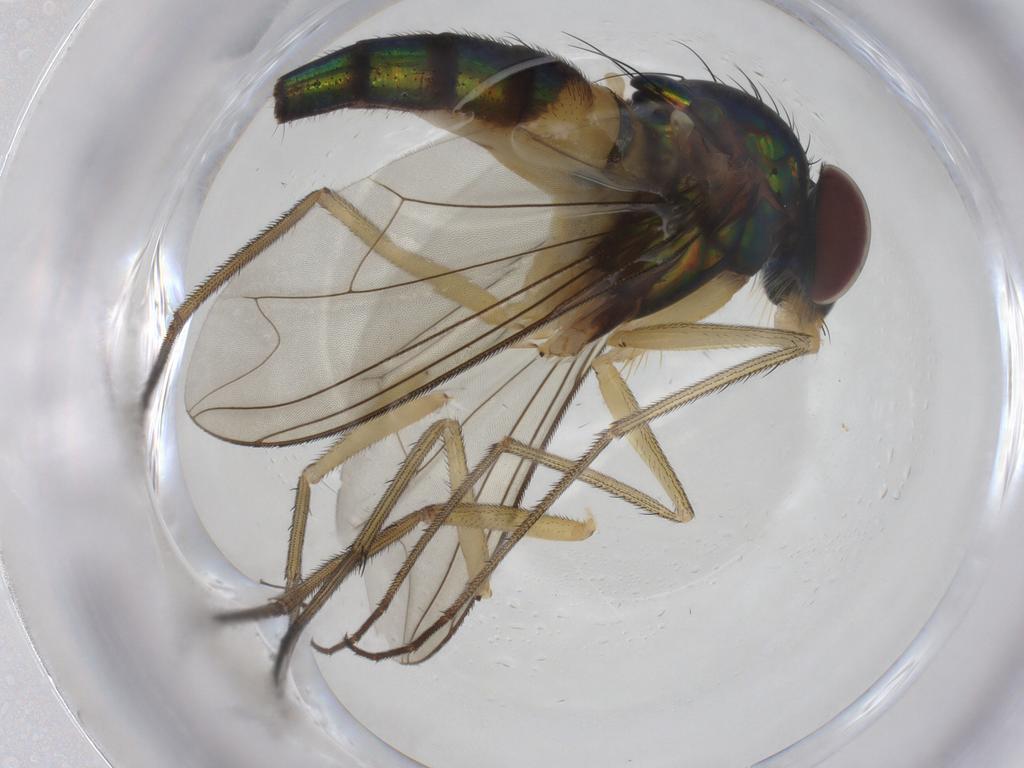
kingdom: Animalia
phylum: Arthropoda
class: Insecta
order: Diptera
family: Dolichopodidae
